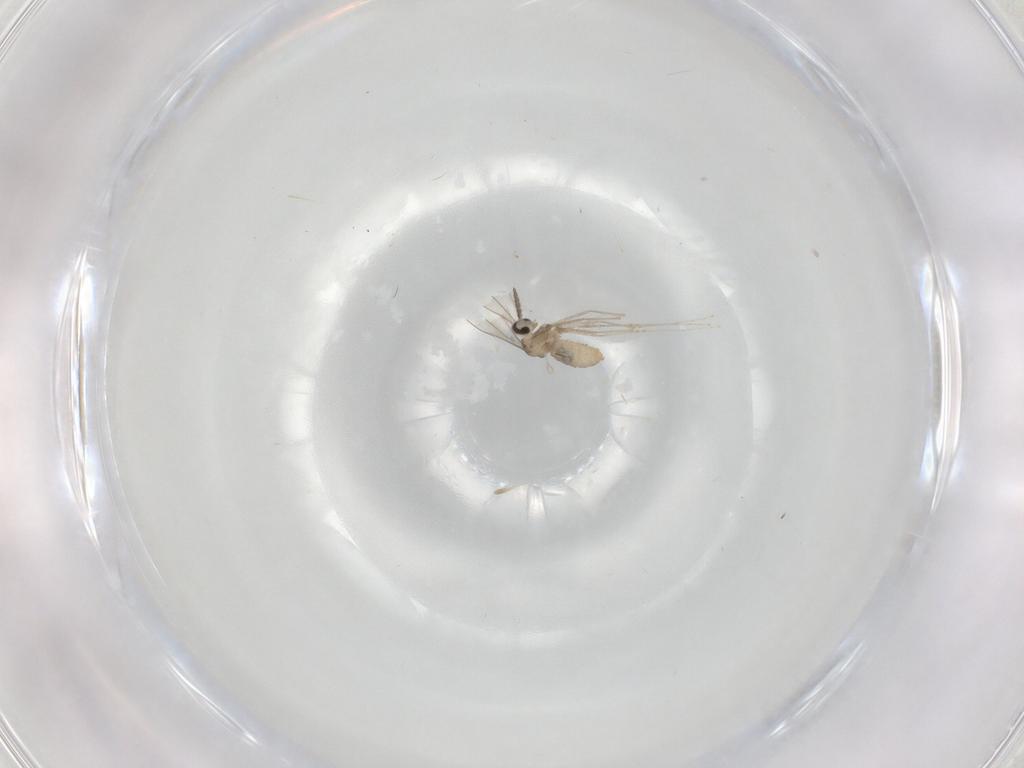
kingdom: Animalia
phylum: Arthropoda
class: Insecta
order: Diptera
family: Cecidomyiidae
